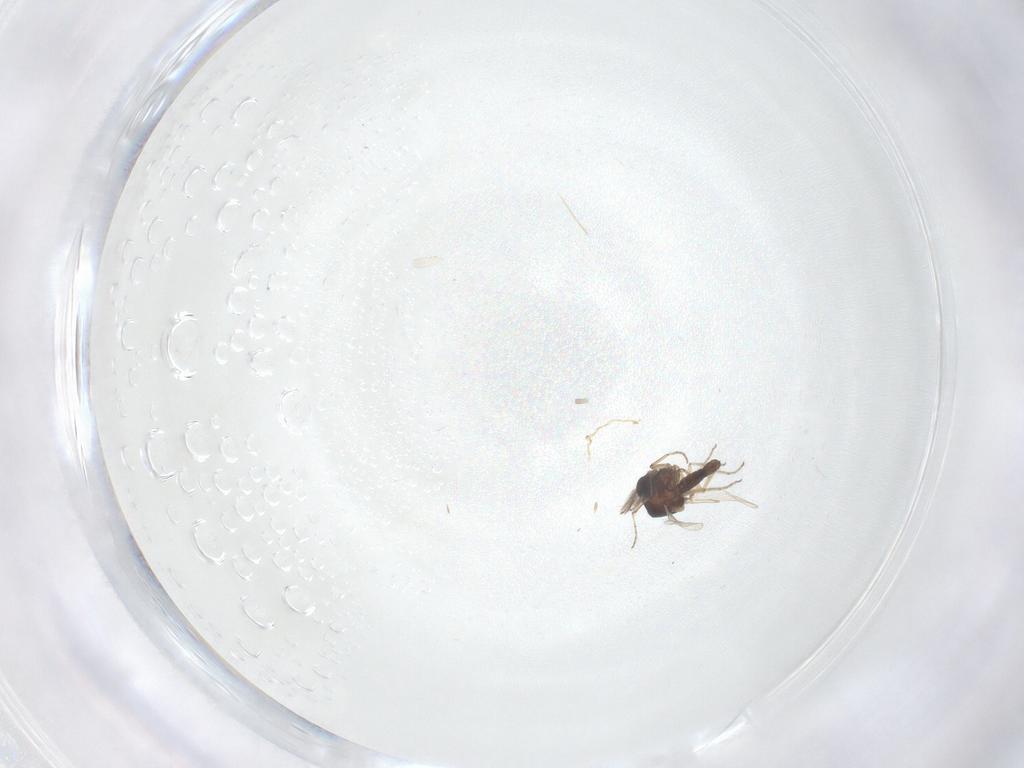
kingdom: Animalia
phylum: Arthropoda
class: Insecta
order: Diptera
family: Ceratopogonidae
